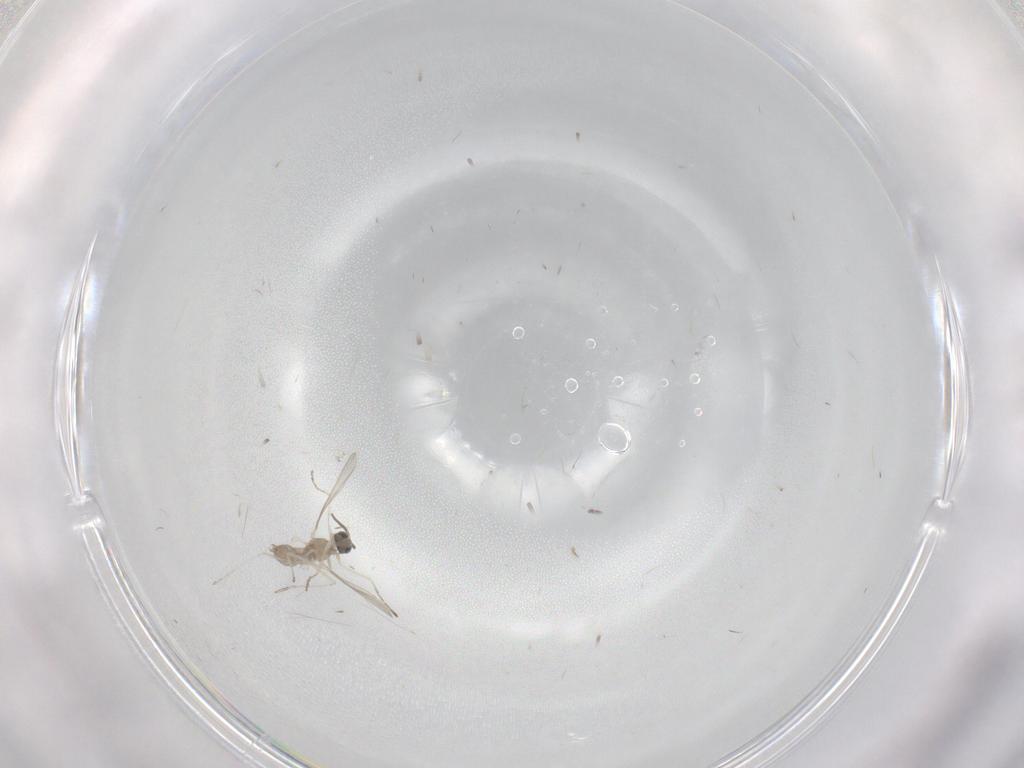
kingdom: Animalia
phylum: Arthropoda
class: Insecta
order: Diptera
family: Cecidomyiidae
